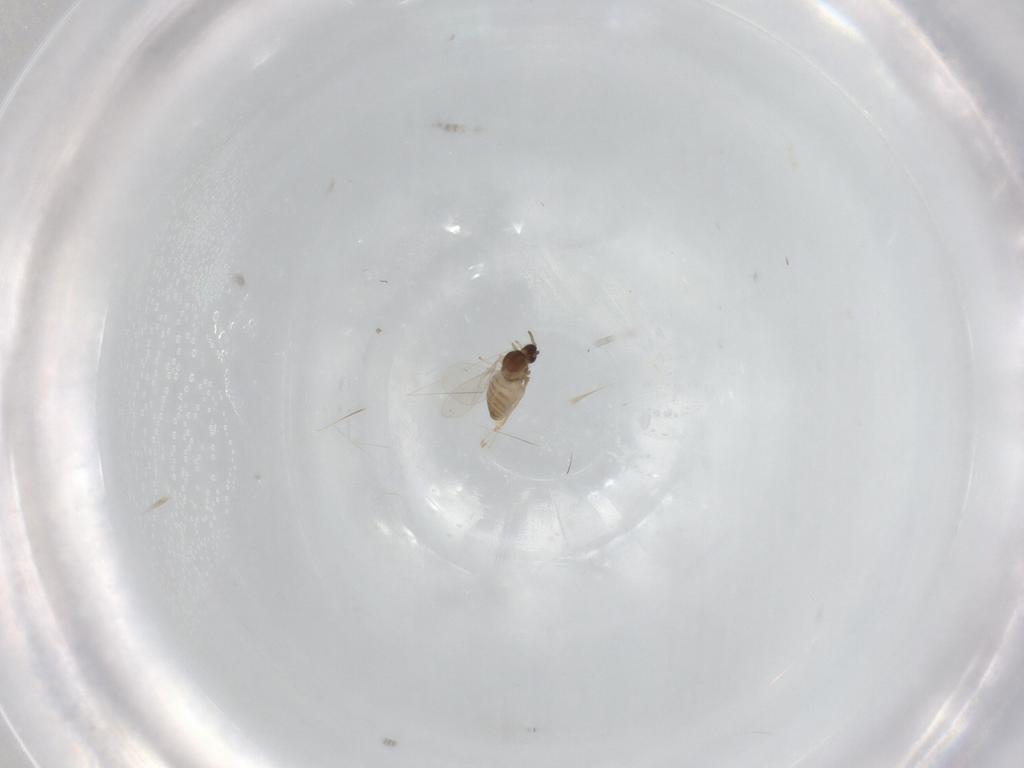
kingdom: Animalia
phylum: Arthropoda
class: Insecta
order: Diptera
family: Cecidomyiidae
